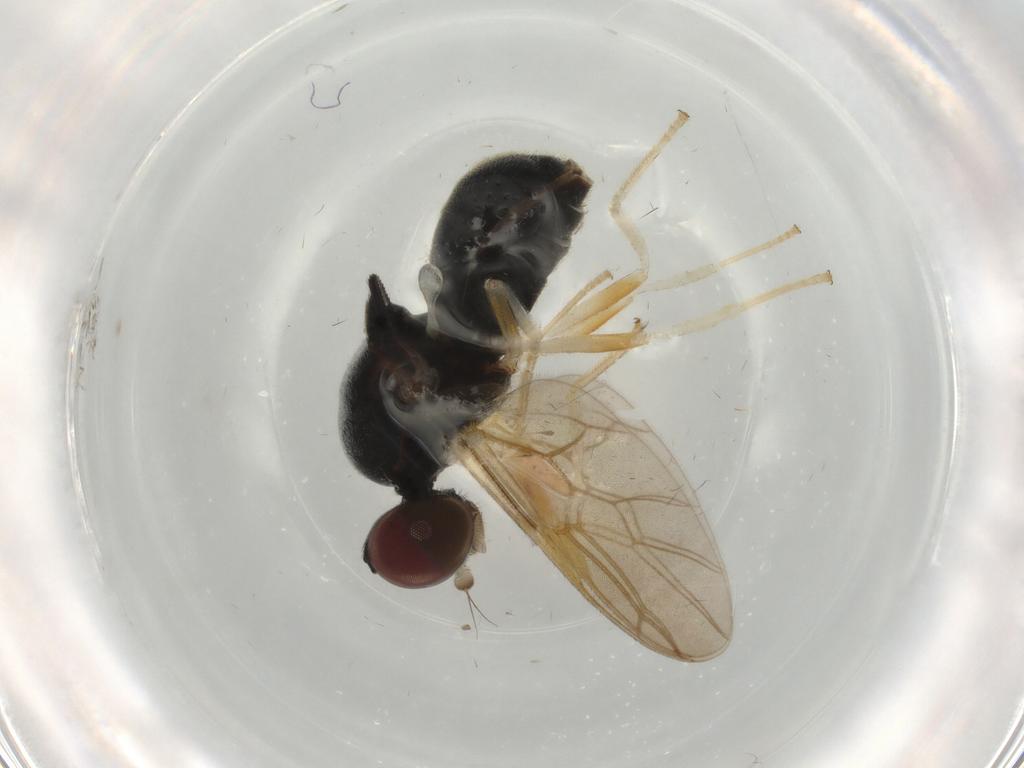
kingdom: Animalia
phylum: Arthropoda
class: Insecta
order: Diptera
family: Stratiomyidae
